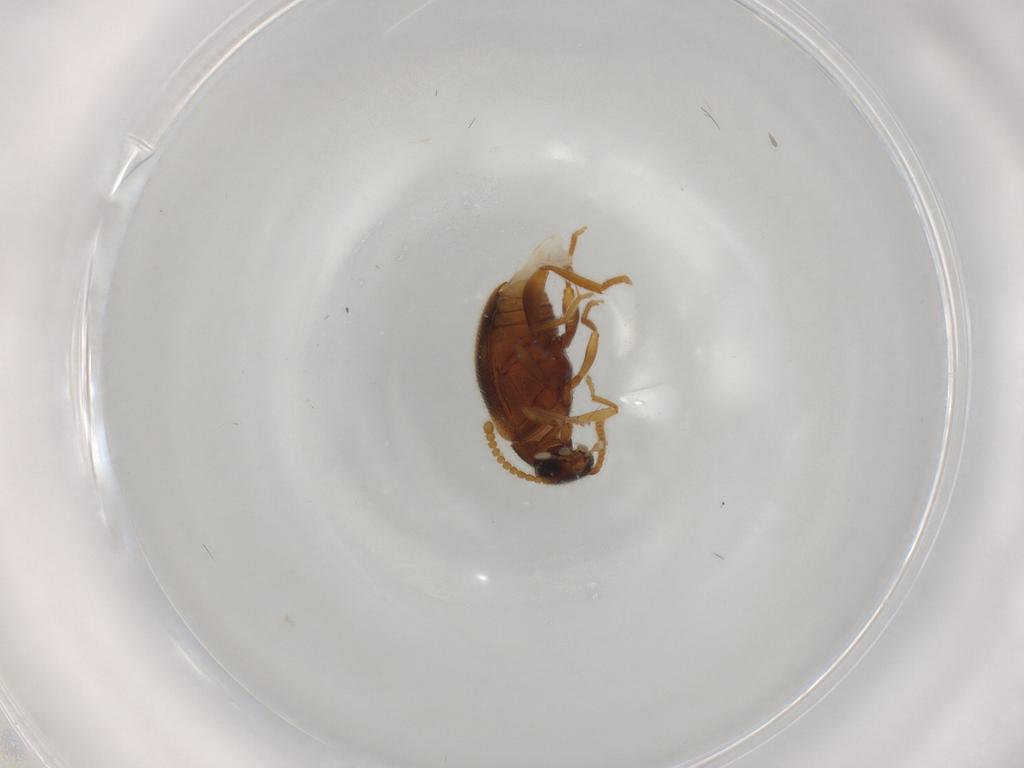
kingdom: Animalia
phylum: Arthropoda
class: Insecta
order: Coleoptera
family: Aderidae
